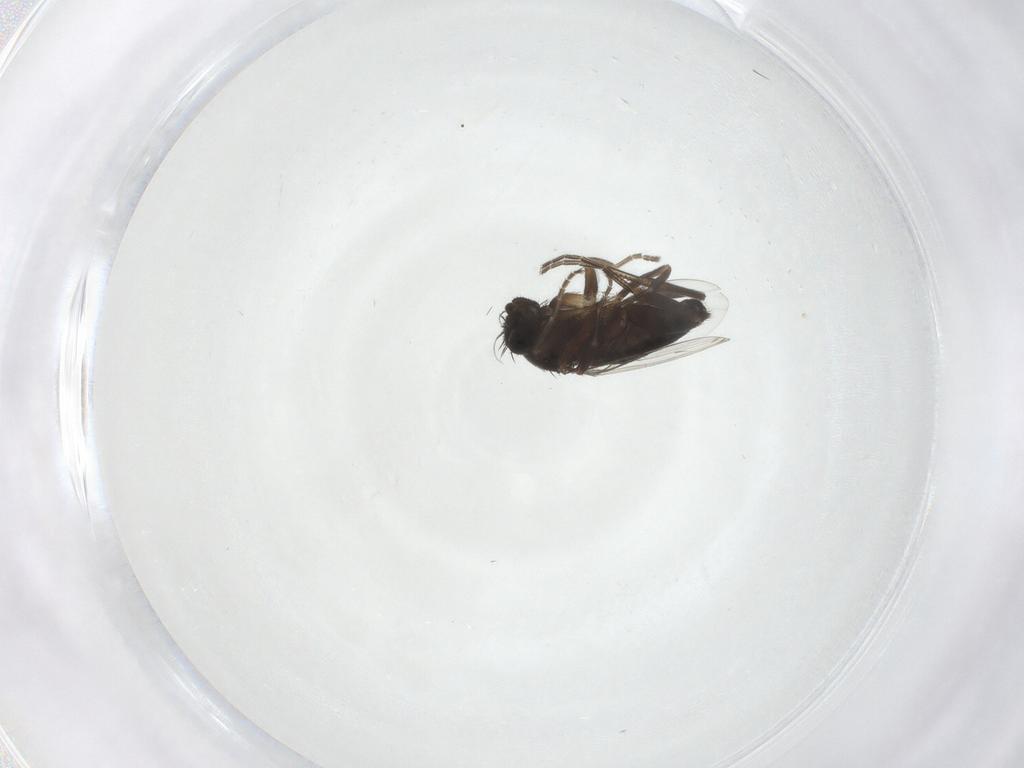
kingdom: Animalia
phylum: Arthropoda
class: Insecta
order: Diptera
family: Phoridae
